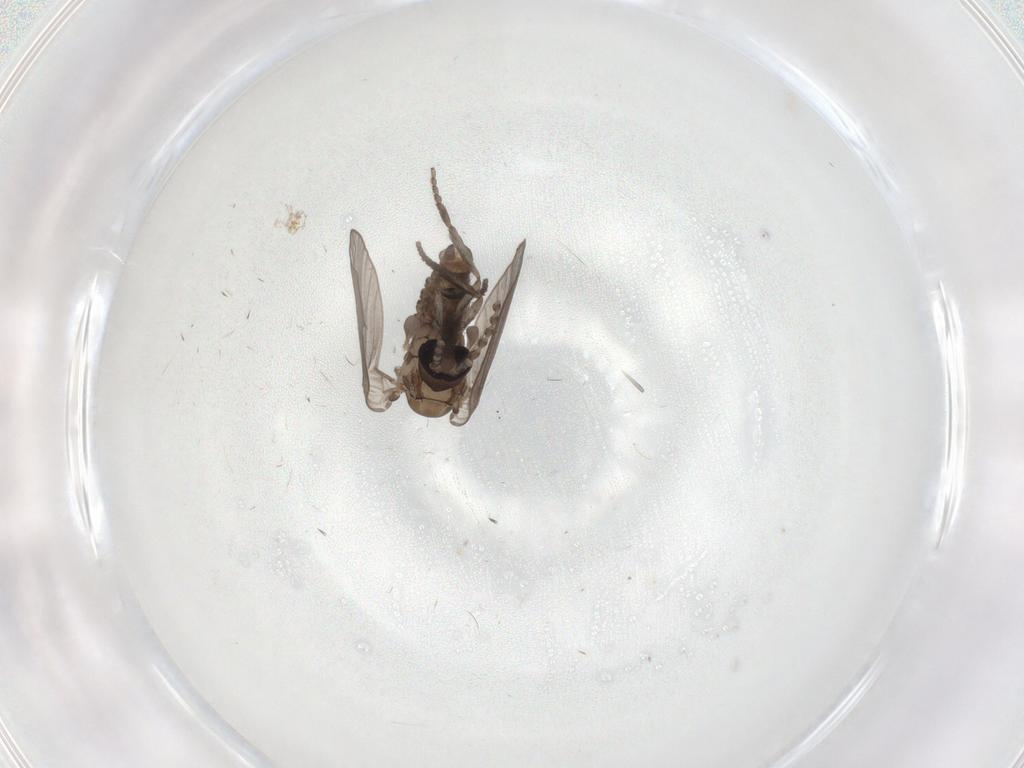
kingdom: Animalia
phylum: Arthropoda
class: Insecta
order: Diptera
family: Psychodidae
